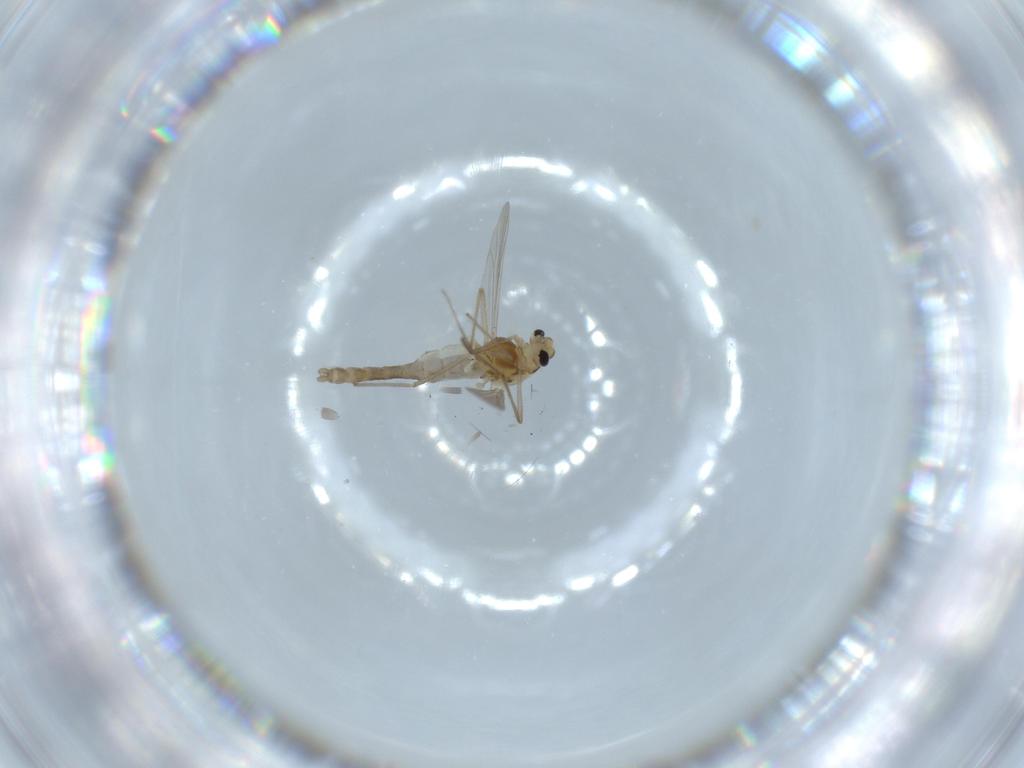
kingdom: Animalia
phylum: Arthropoda
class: Insecta
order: Diptera
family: Chironomidae
